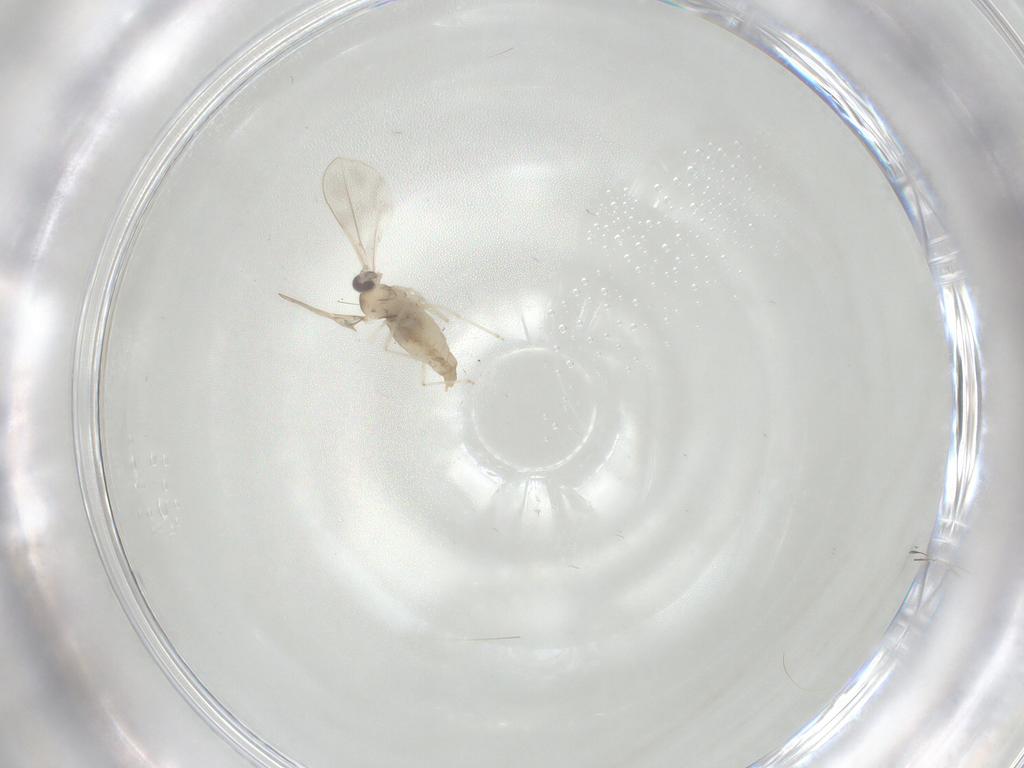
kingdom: Animalia
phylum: Arthropoda
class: Insecta
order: Diptera
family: Cecidomyiidae
